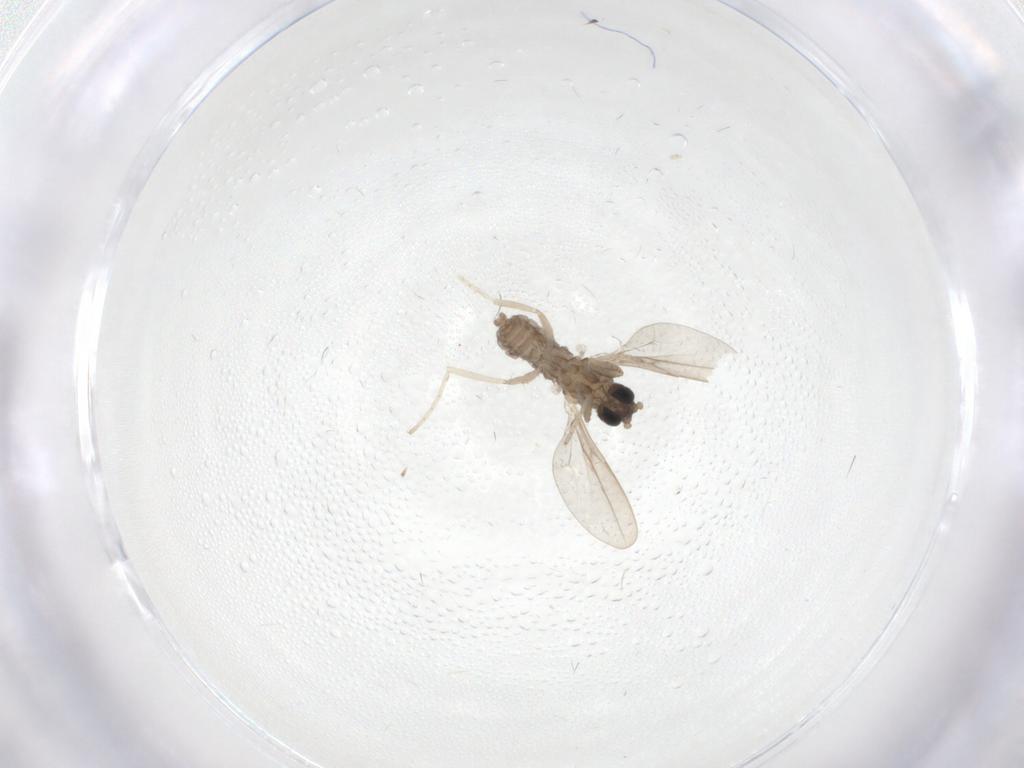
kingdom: Animalia
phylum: Arthropoda
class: Insecta
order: Diptera
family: Cecidomyiidae
